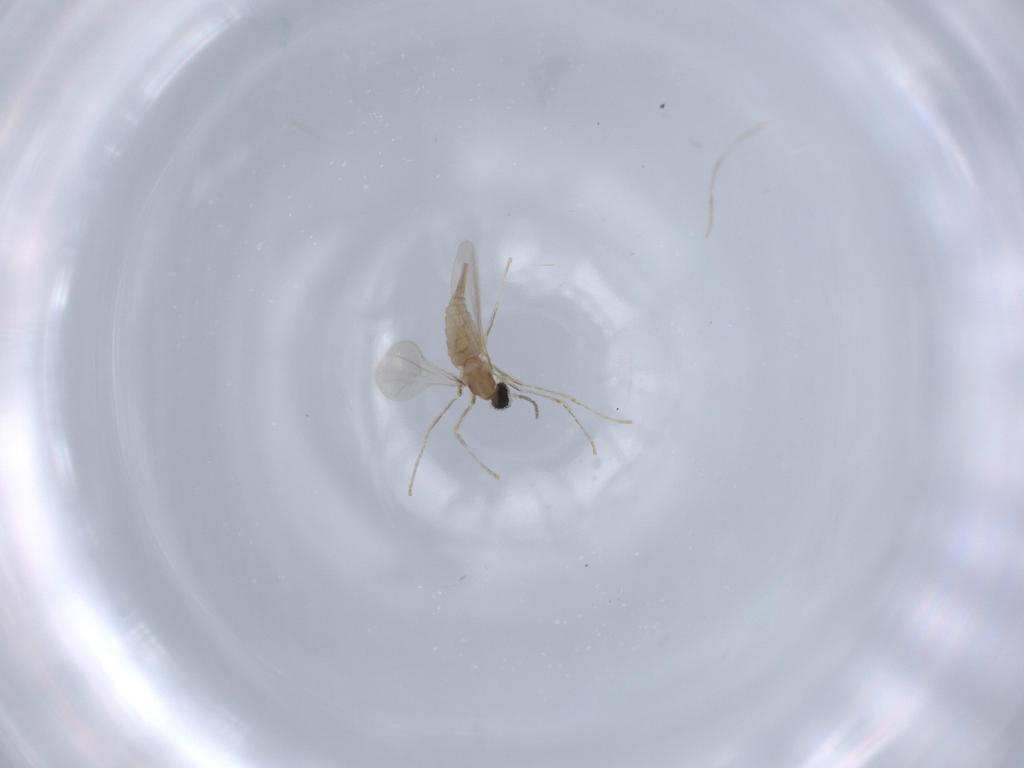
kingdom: Animalia
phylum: Arthropoda
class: Insecta
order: Diptera
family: Cecidomyiidae
